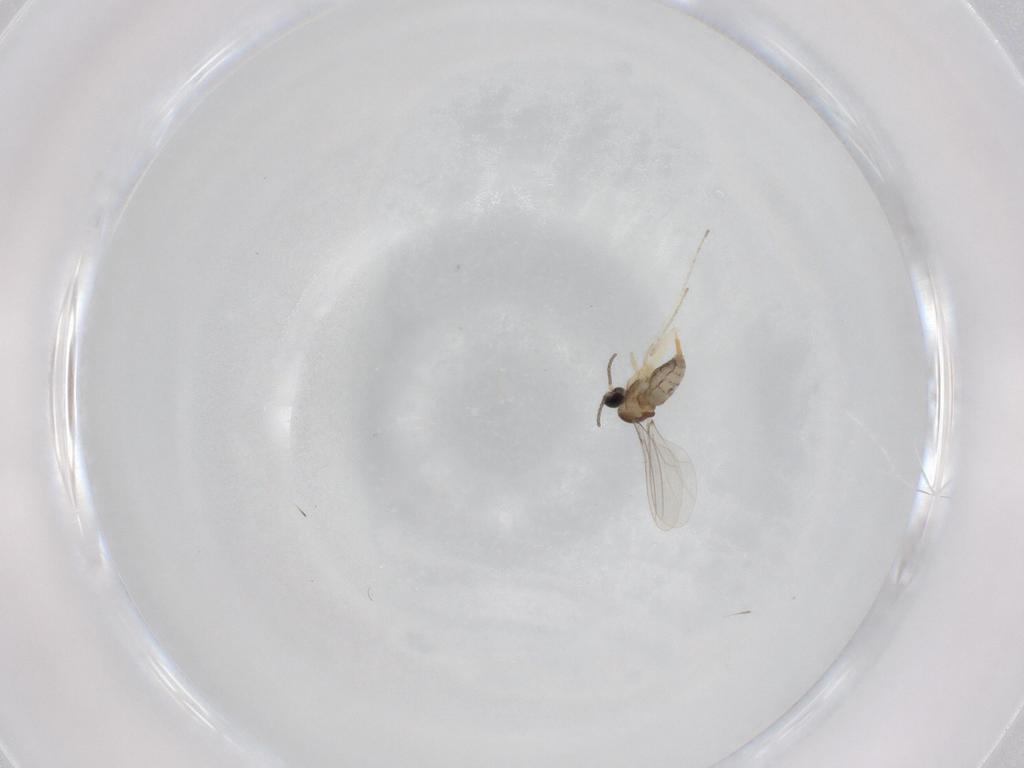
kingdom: Animalia
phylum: Arthropoda
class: Insecta
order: Diptera
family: Cecidomyiidae
